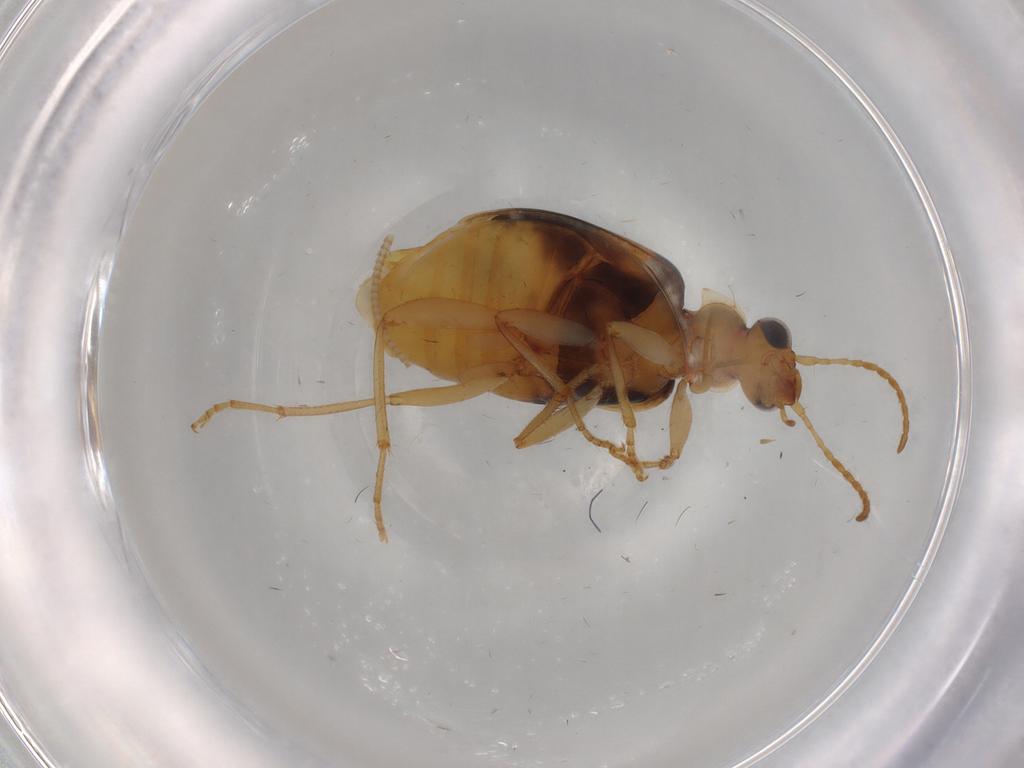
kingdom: Animalia
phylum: Arthropoda
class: Insecta
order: Coleoptera
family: Carabidae
